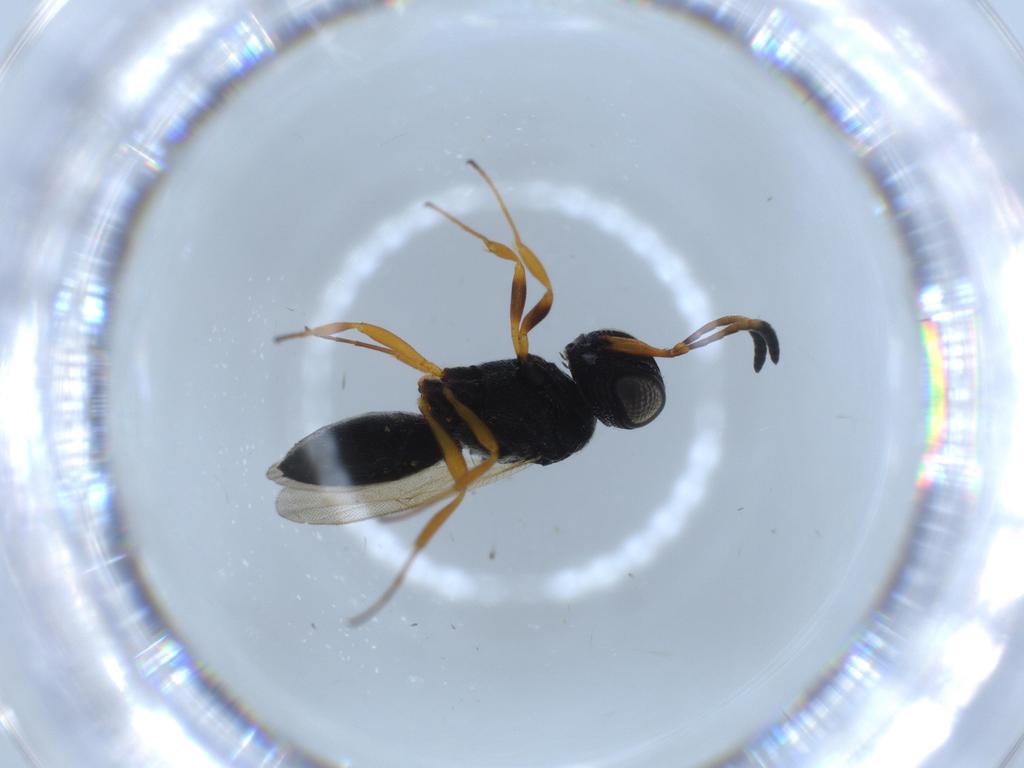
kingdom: Animalia
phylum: Arthropoda
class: Insecta
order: Hymenoptera
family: Scelionidae
